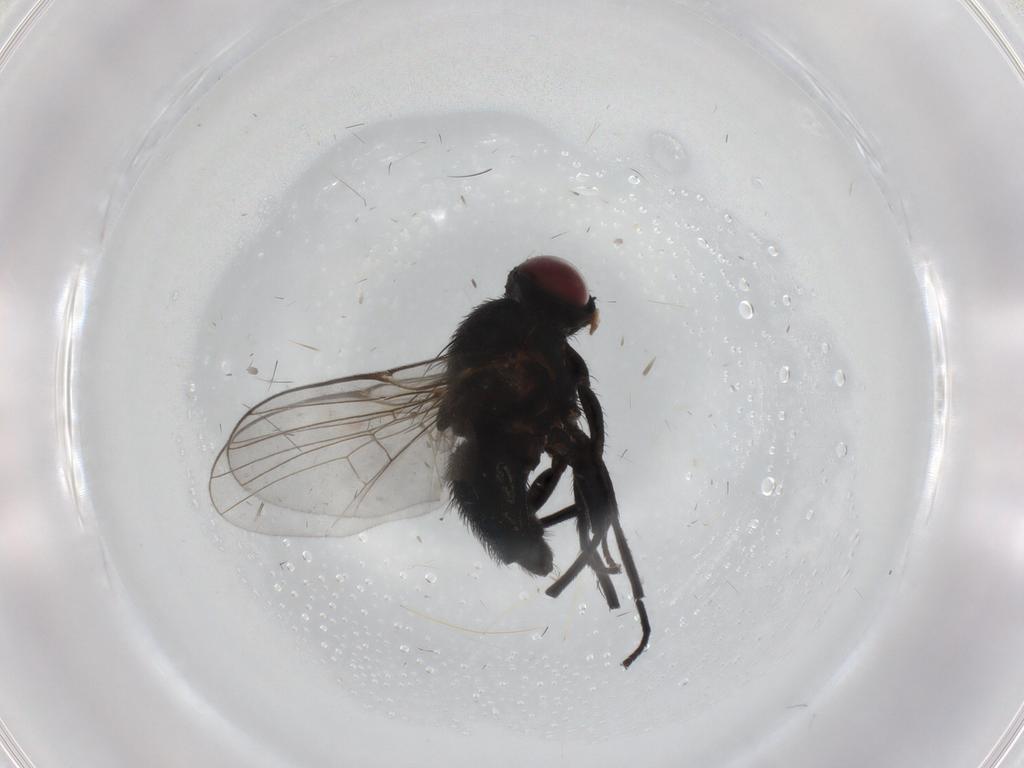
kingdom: Animalia
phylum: Arthropoda
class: Insecta
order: Diptera
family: Agromyzidae
